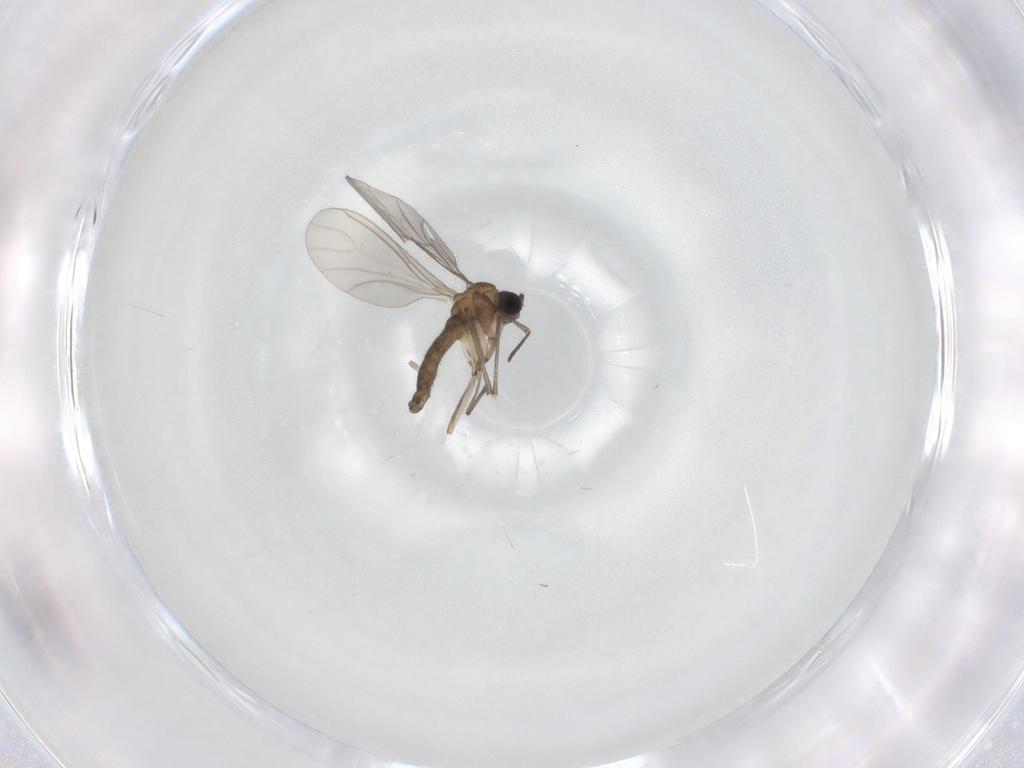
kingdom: Animalia
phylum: Arthropoda
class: Insecta
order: Diptera
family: Sciaridae
